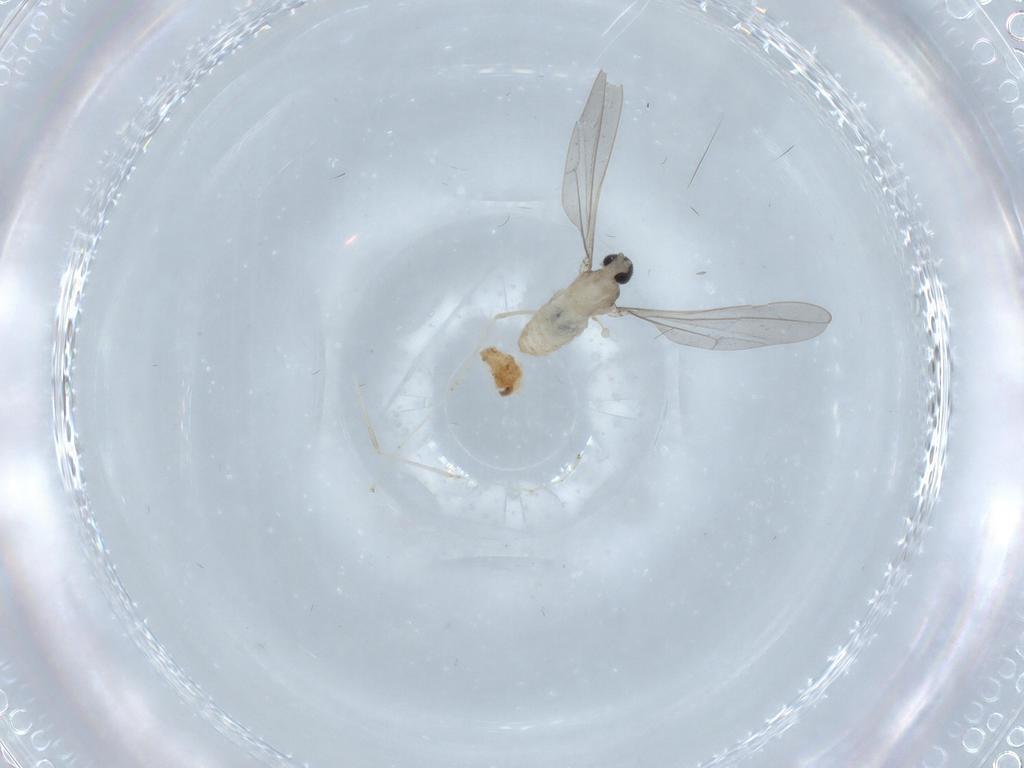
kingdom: Animalia
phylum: Arthropoda
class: Insecta
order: Diptera
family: Cecidomyiidae
